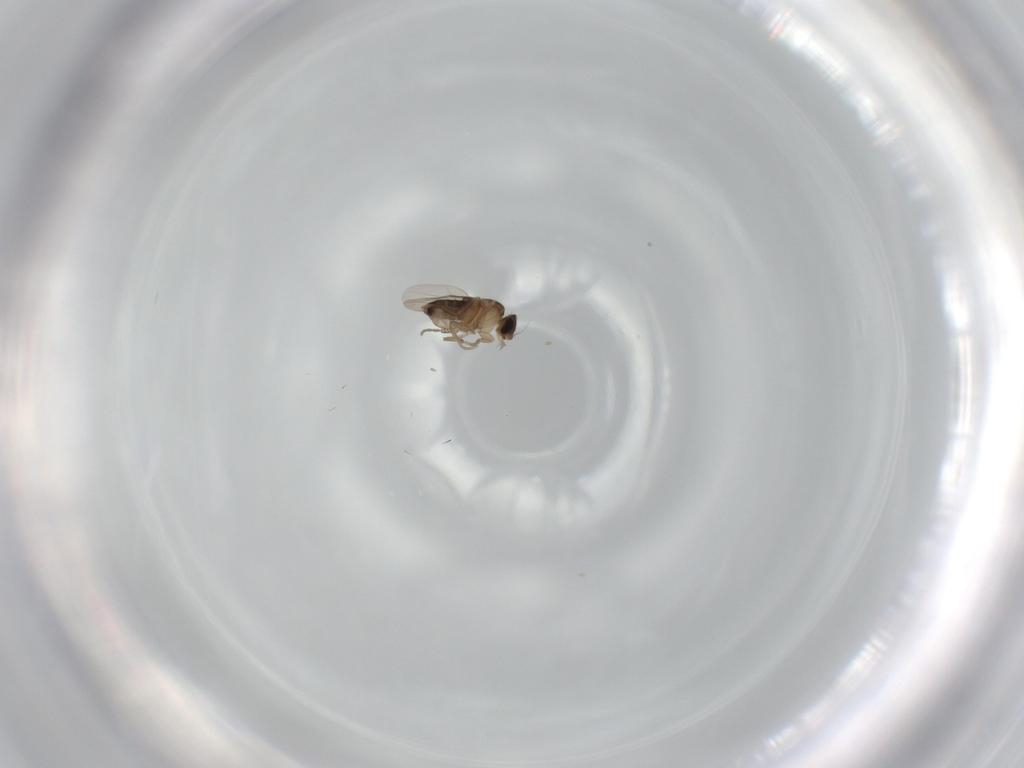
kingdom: Animalia
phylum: Arthropoda
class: Insecta
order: Diptera
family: Phoridae
